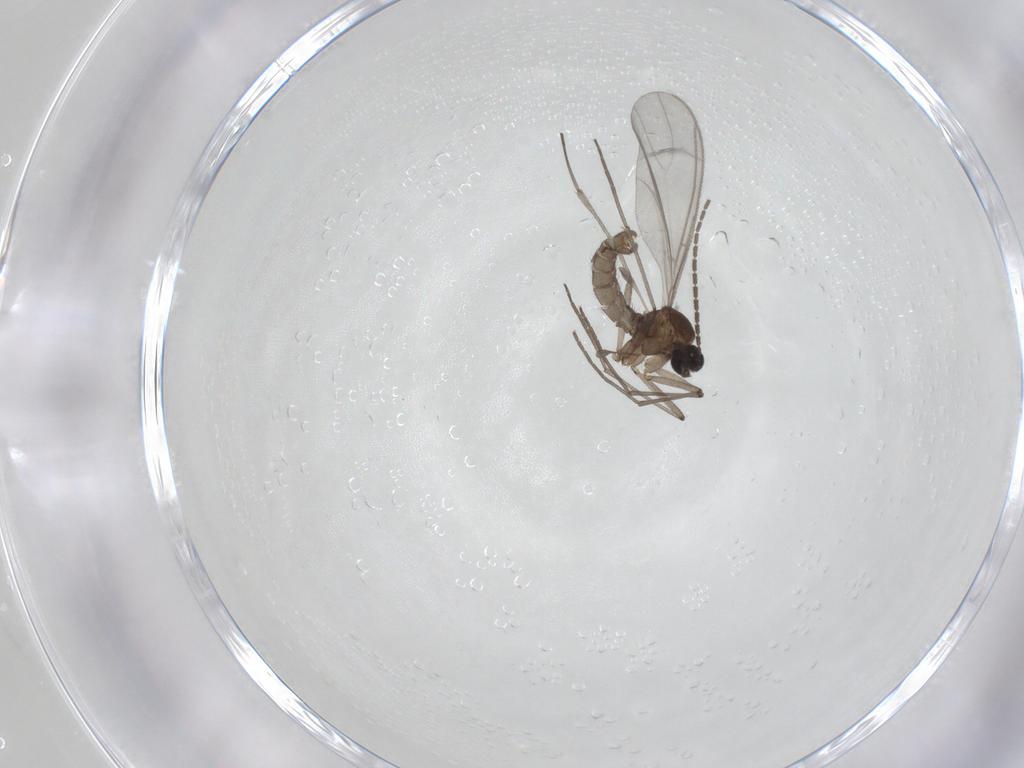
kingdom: Animalia
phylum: Arthropoda
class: Insecta
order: Diptera
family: Sciaridae
